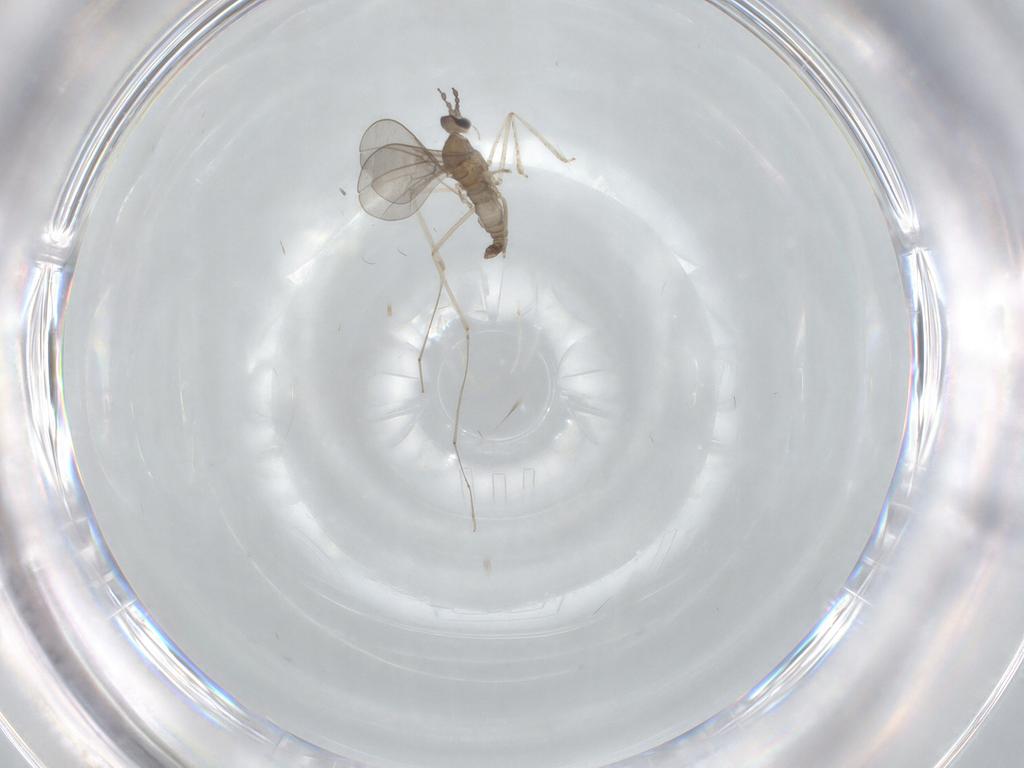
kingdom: Animalia
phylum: Arthropoda
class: Insecta
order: Diptera
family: Cecidomyiidae
